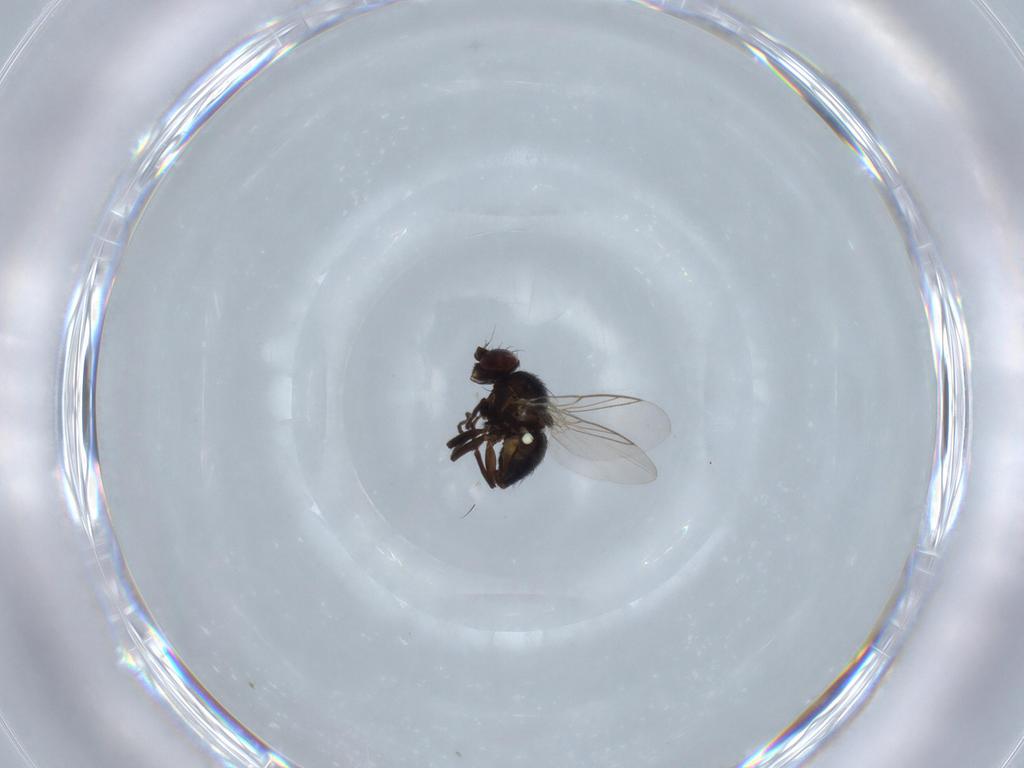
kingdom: Animalia
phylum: Arthropoda
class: Insecta
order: Diptera
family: Agromyzidae
